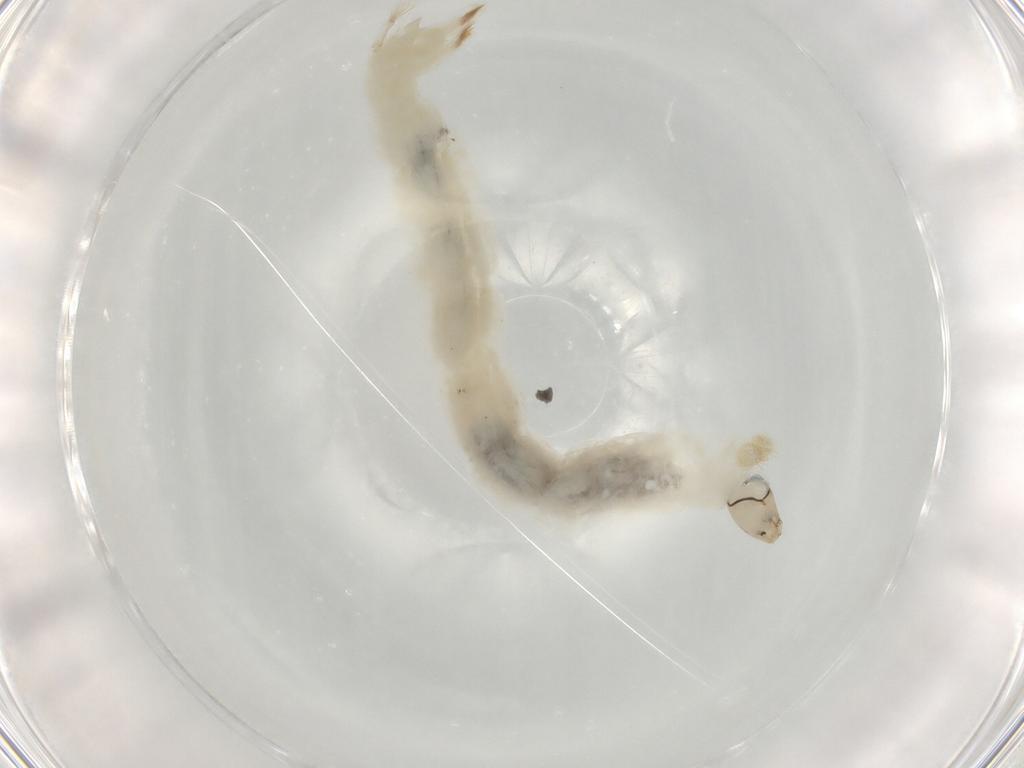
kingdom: Animalia
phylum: Arthropoda
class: Insecta
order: Diptera
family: Chironomidae
